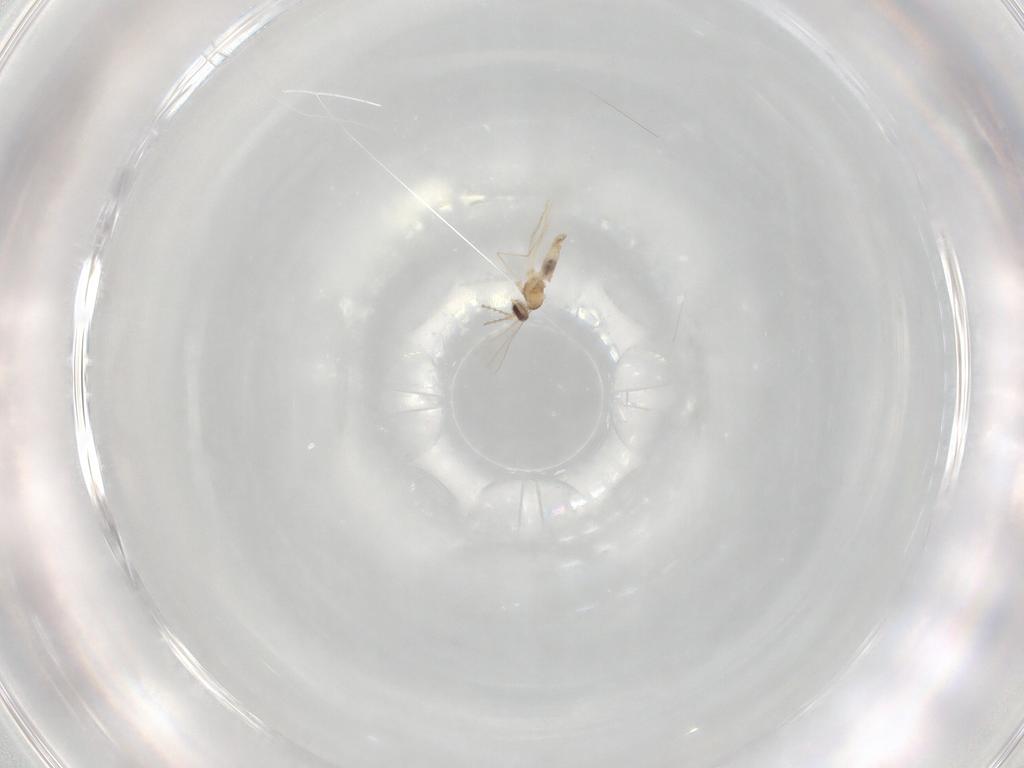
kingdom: Animalia
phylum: Arthropoda
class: Insecta
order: Diptera
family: Cecidomyiidae
